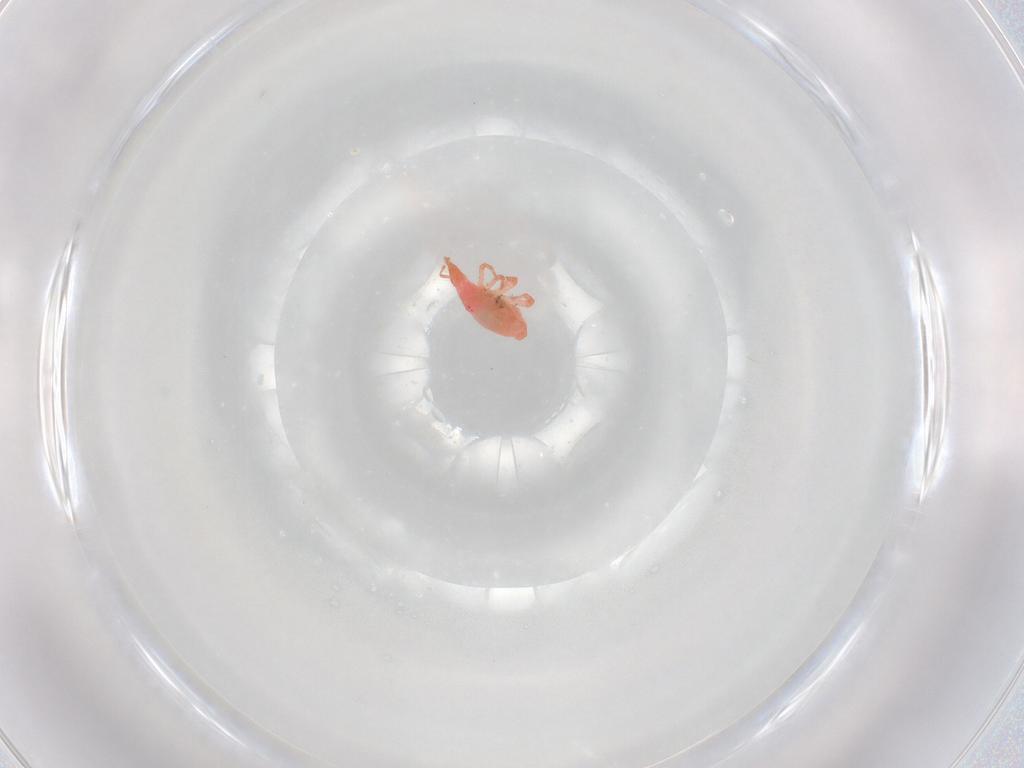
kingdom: Animalia
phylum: Arthropoda
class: Arachnida
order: Trombidiformes
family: Bdellidae
